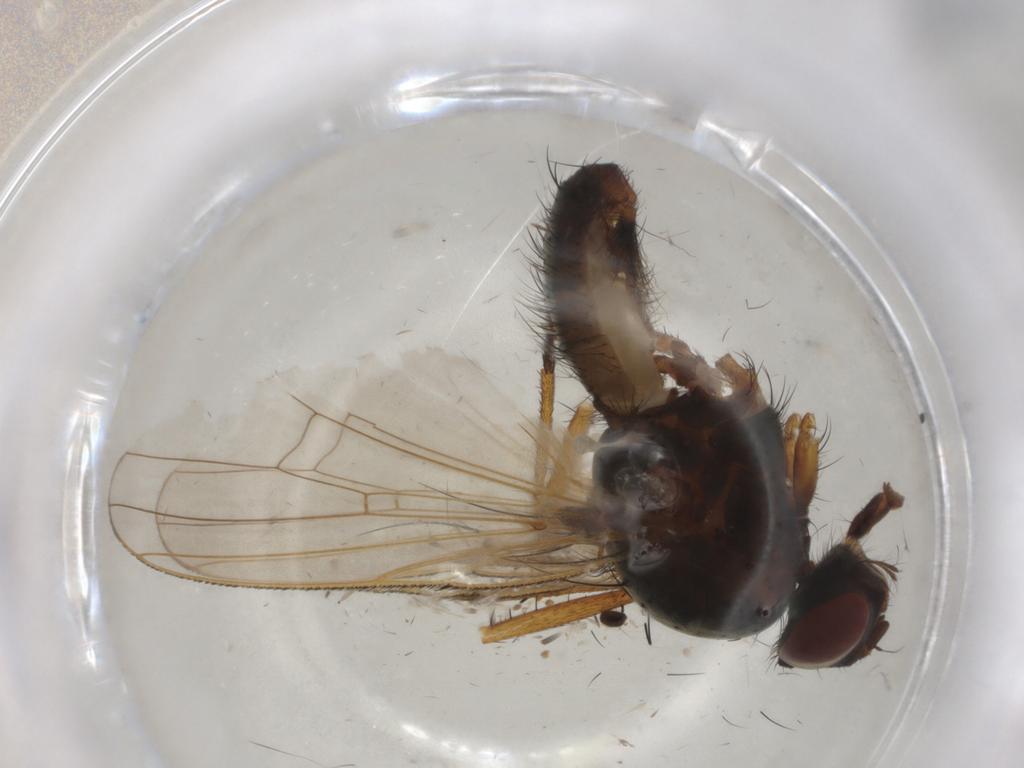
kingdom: Animalia
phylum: Arthropoda
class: Insecta
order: Diptera
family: Anthomyiidae
